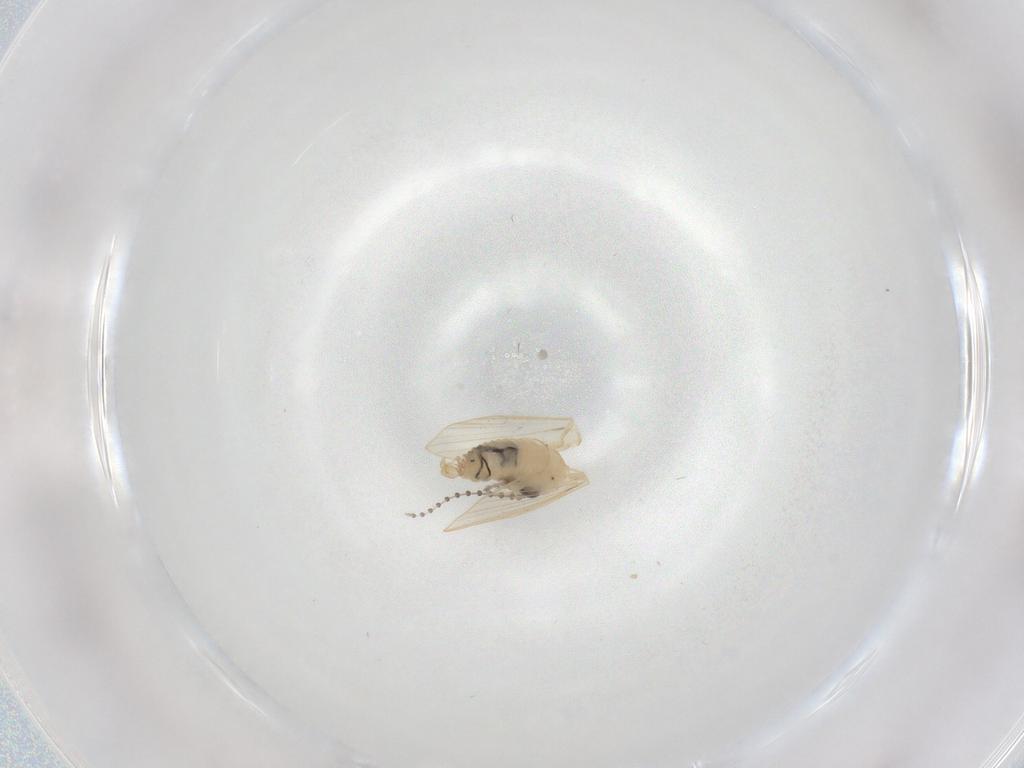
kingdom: Animalia
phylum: Arthropoda
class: Insecta
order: Diptera
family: Psychodidae
